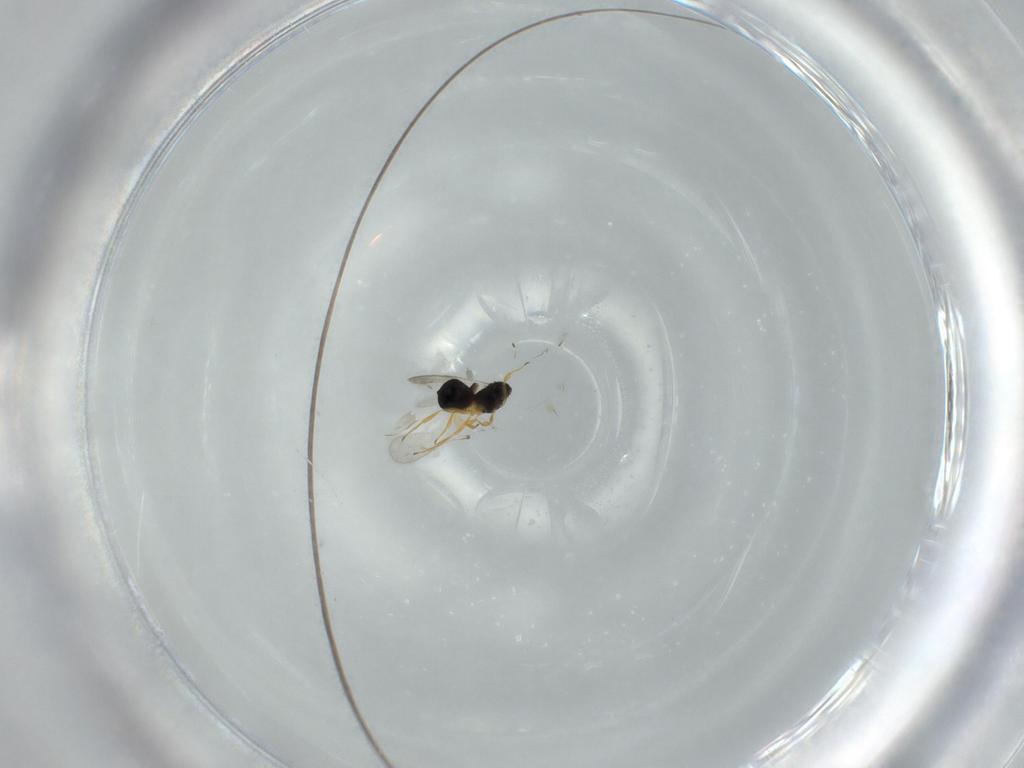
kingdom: Animalia
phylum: Arthropoda
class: Insecta
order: Hymenoptera
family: Scelionidae
